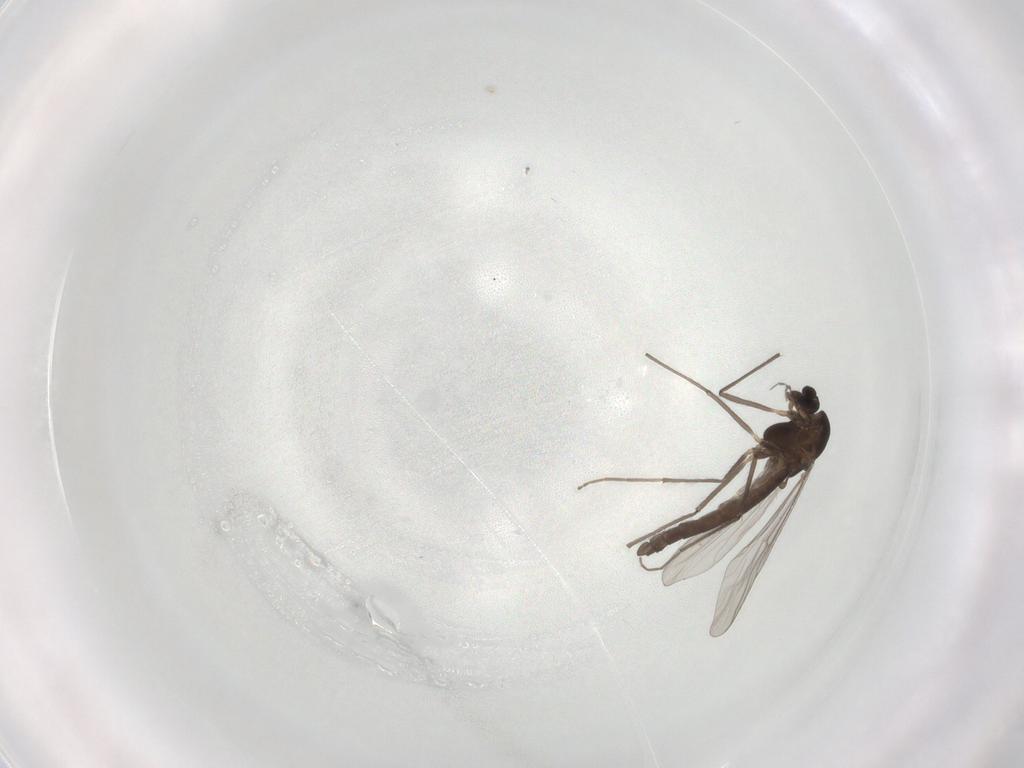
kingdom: Animalia
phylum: Arthropoda
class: Insecta
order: Diptera
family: Chironomidae
